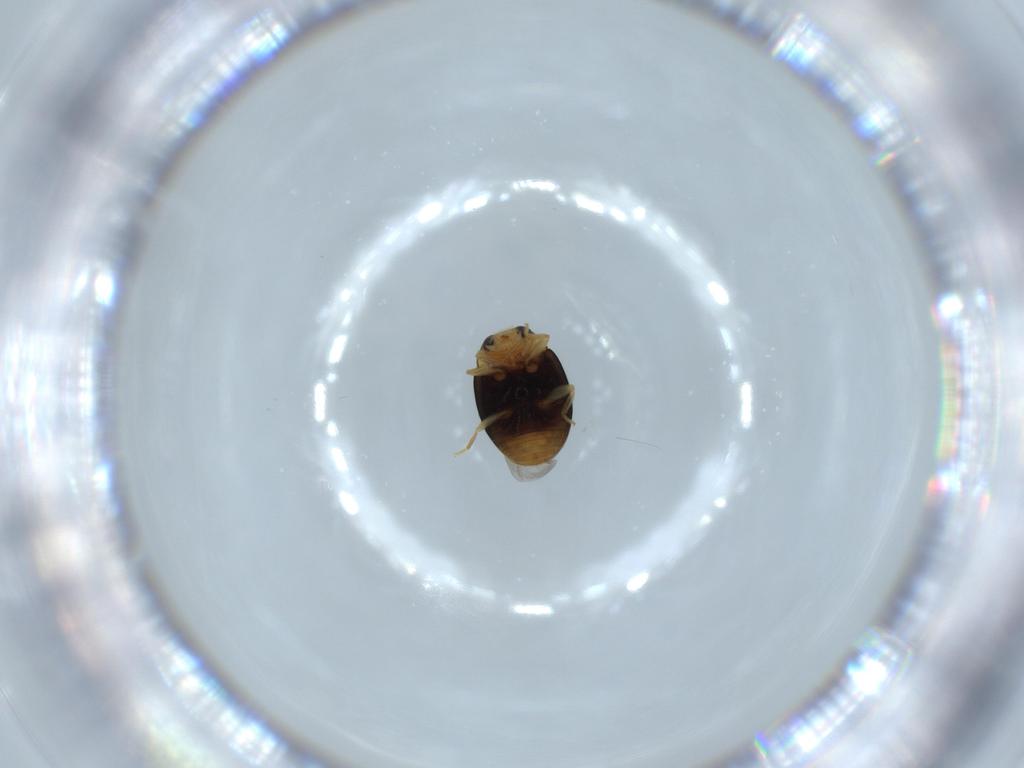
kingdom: Animalia
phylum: Arthropoda
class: Insecta
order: Coleoptera
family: Coccinellidae
